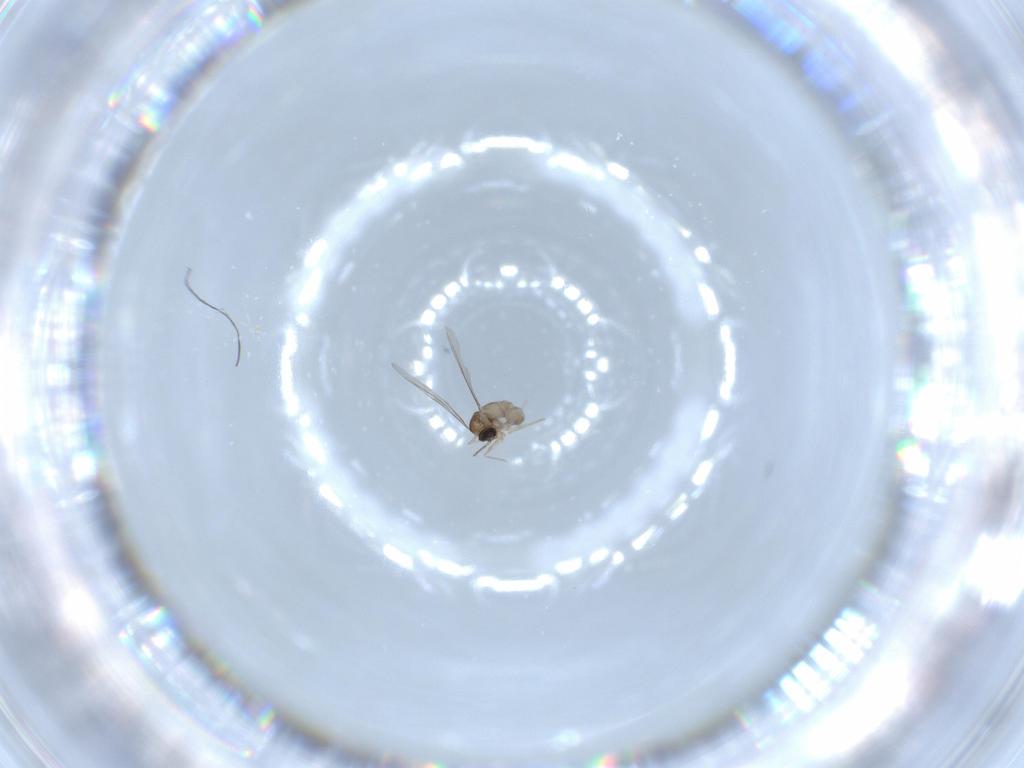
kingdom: Animalia
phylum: Arthropoda
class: Insecta
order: Diptera
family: Cecidomyiidae
